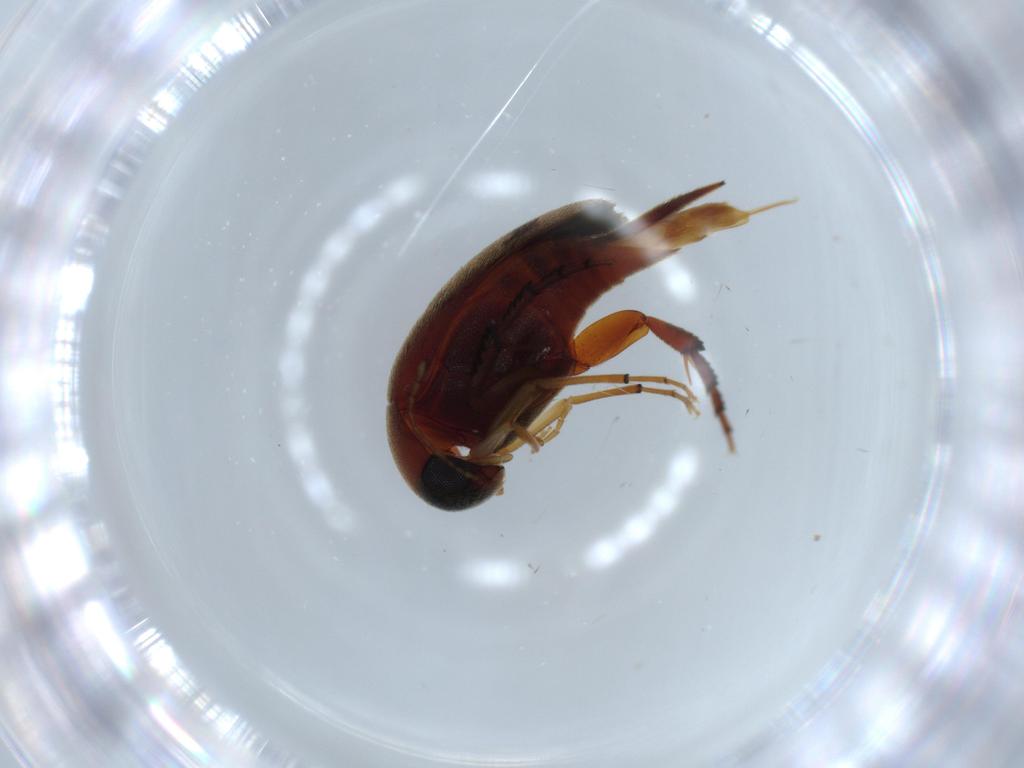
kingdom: Animalia
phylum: Arthropoda
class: Insecta
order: Coleoptera
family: Mordellidae
